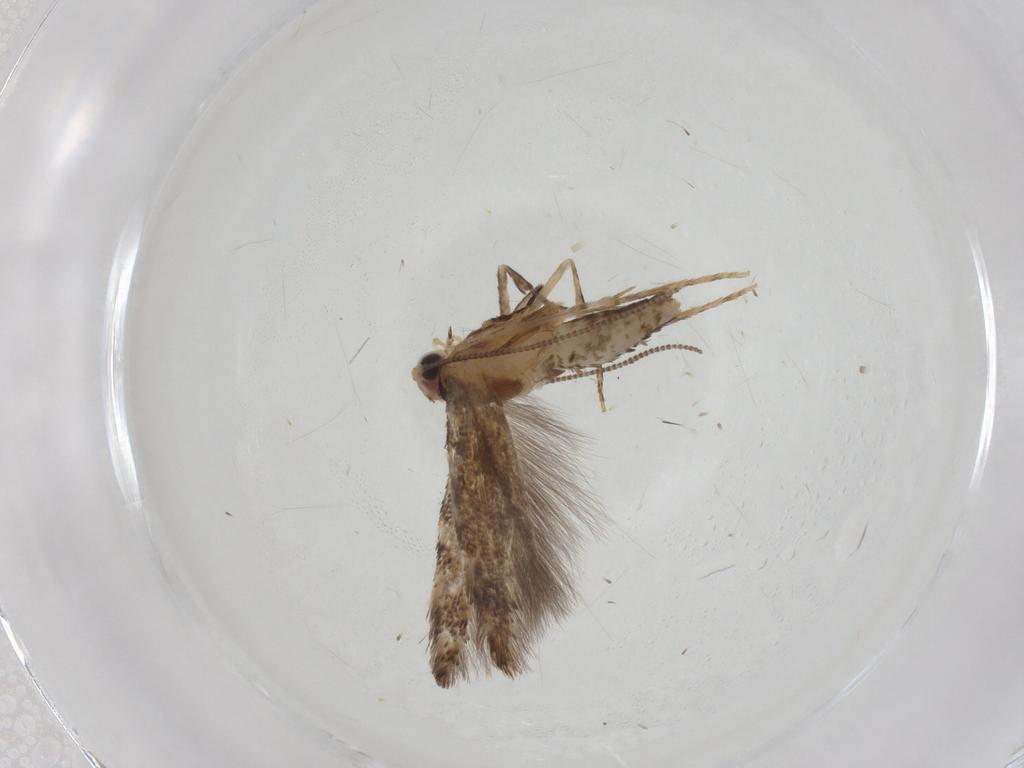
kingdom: Animalia
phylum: Arthropoda
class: Insecta
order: Lepidoptera
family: Tineidae
